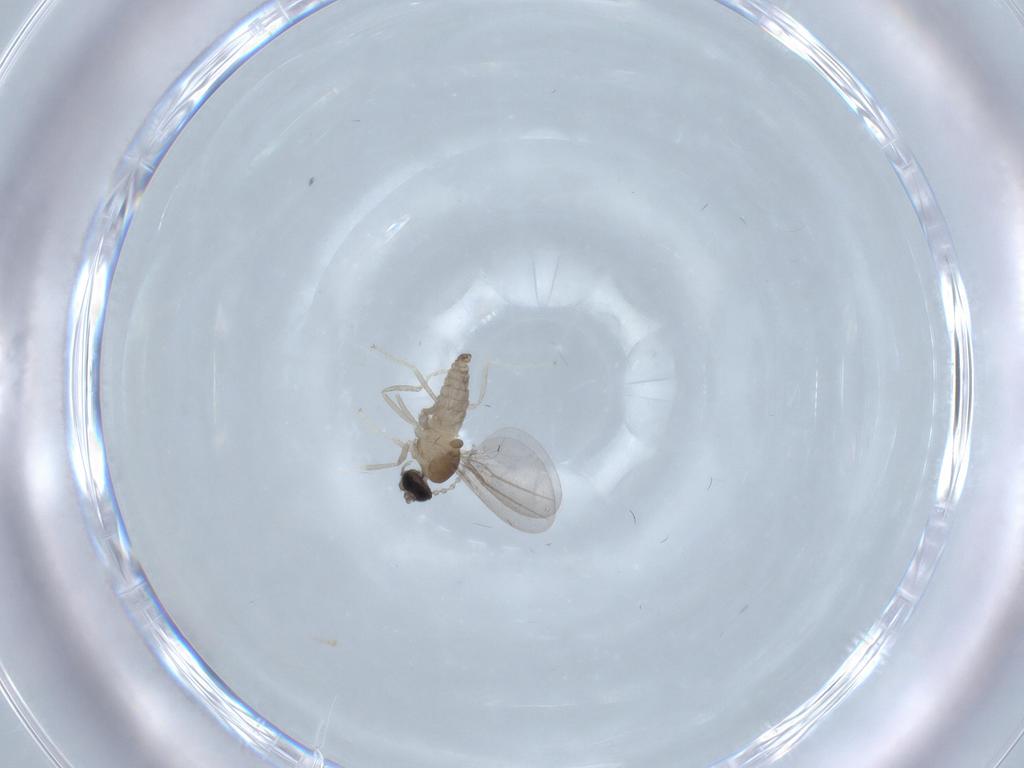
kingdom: Animalia
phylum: Arthropoda
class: Insecta
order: Diptera
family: Cecidomyiidae
